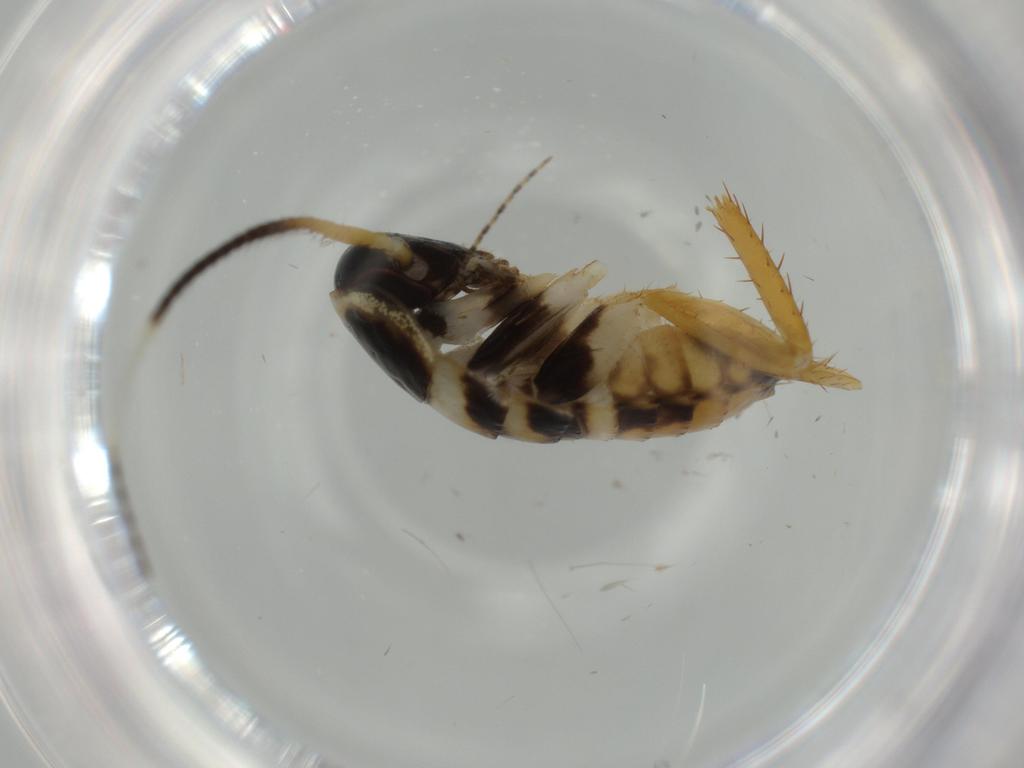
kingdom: Animalia
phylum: Arthropoda
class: Insecta
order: Blattodea
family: Ectobiidae
